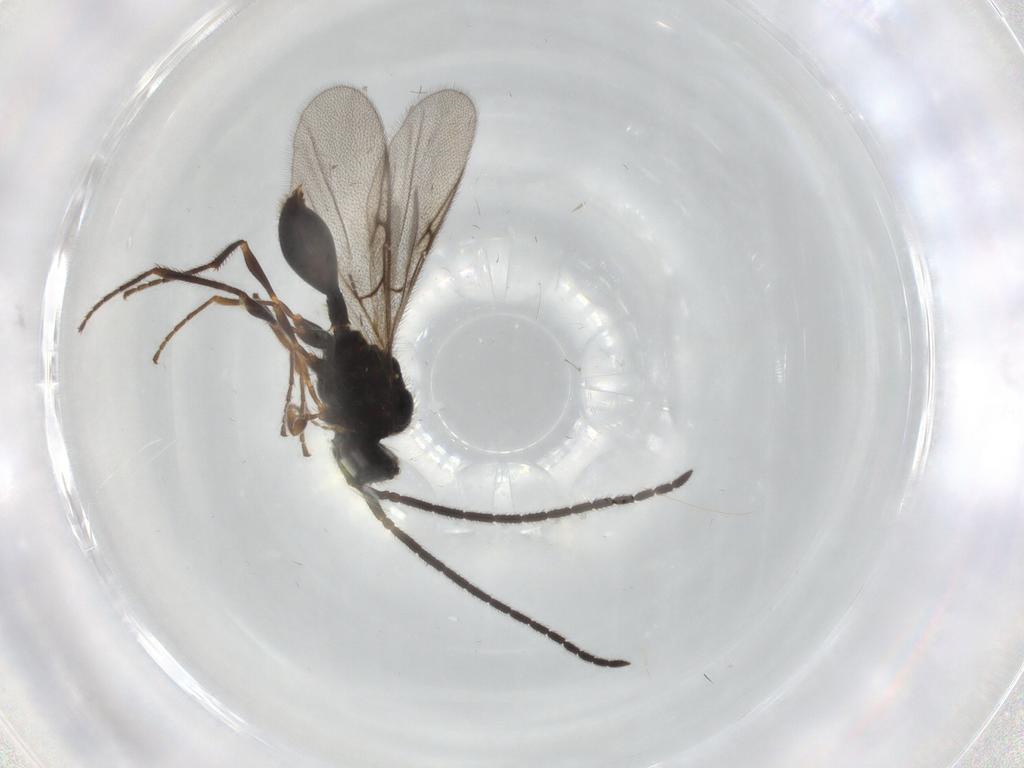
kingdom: Animalia
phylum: Arthropoda
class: Insecta
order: Hymenoptera
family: Diapriidae
